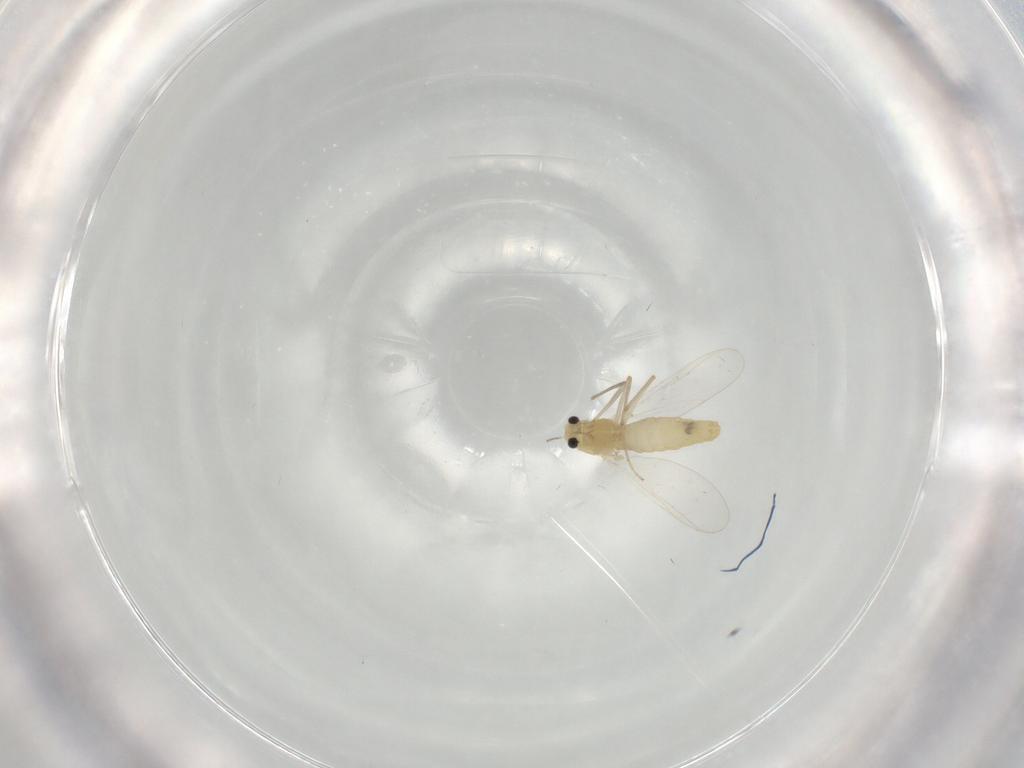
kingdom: Animalia
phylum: Arthropoda
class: Insecta
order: Diptera
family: Chironomidae
